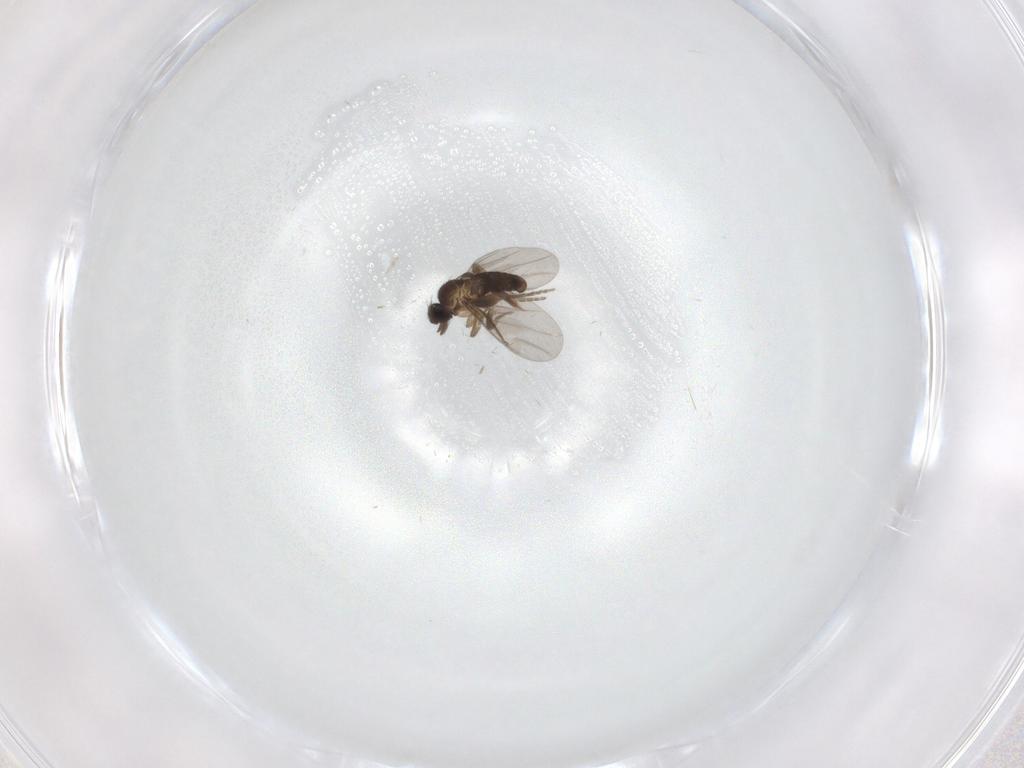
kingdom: Animalia
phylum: Arthropoda
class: Insecta
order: Diptera
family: Ceratopogonidae
